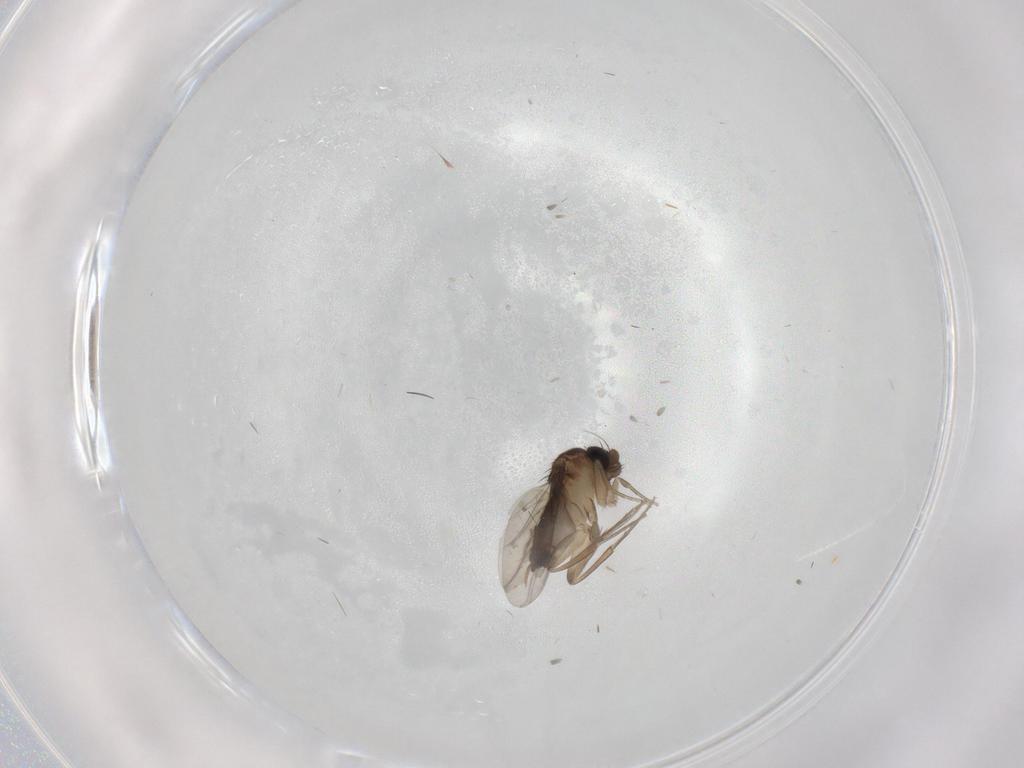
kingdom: Animalia
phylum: Arthropoda
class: Insecta
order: Diptera
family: Cecidomyiidae
